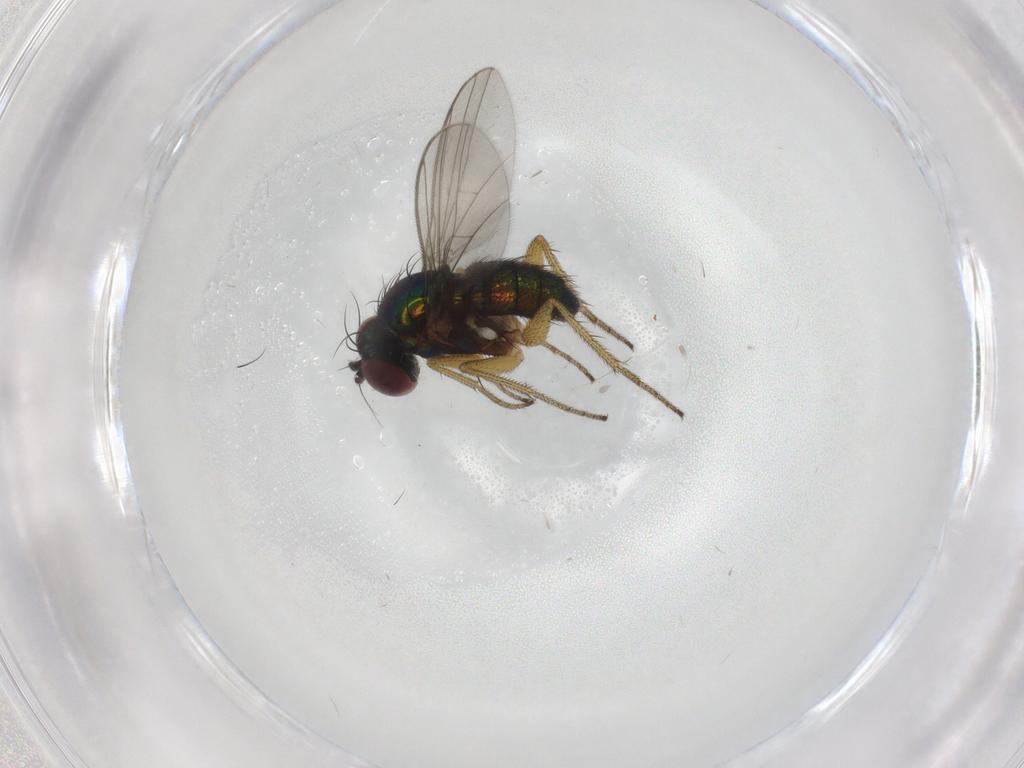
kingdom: Animalia
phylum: Arthropoda
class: Insecta
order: Diptera
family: Dolichopodidae
